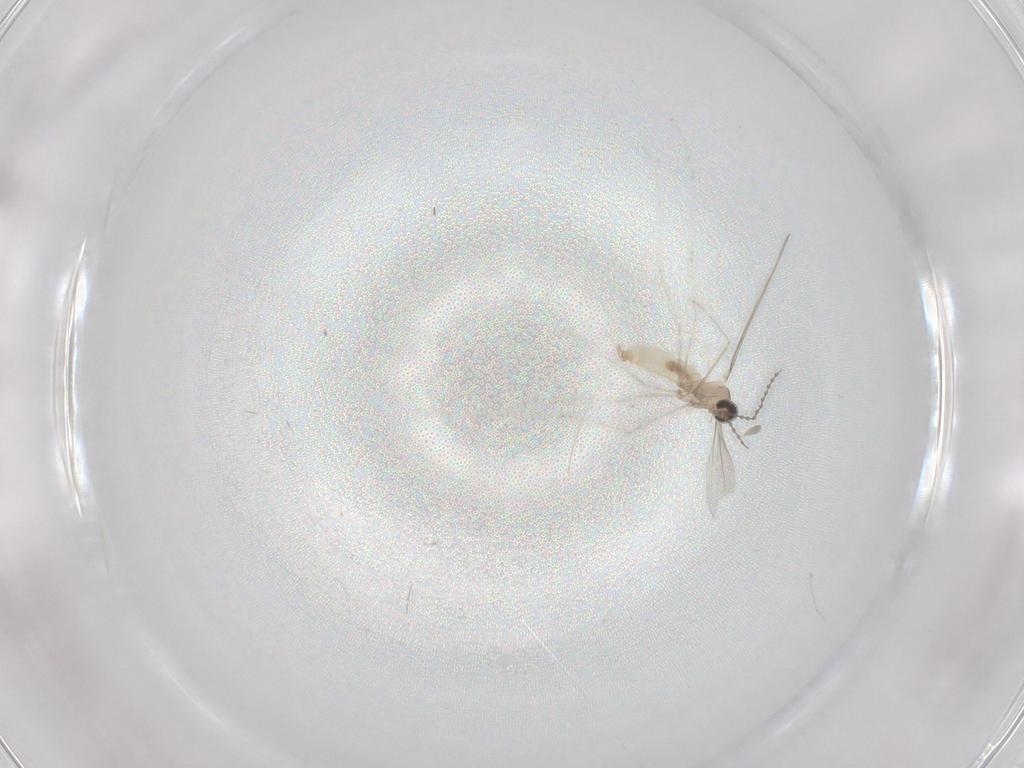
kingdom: Animalia
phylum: Arthropoda
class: Insecta
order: Diptera
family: Cecidomyiidae
